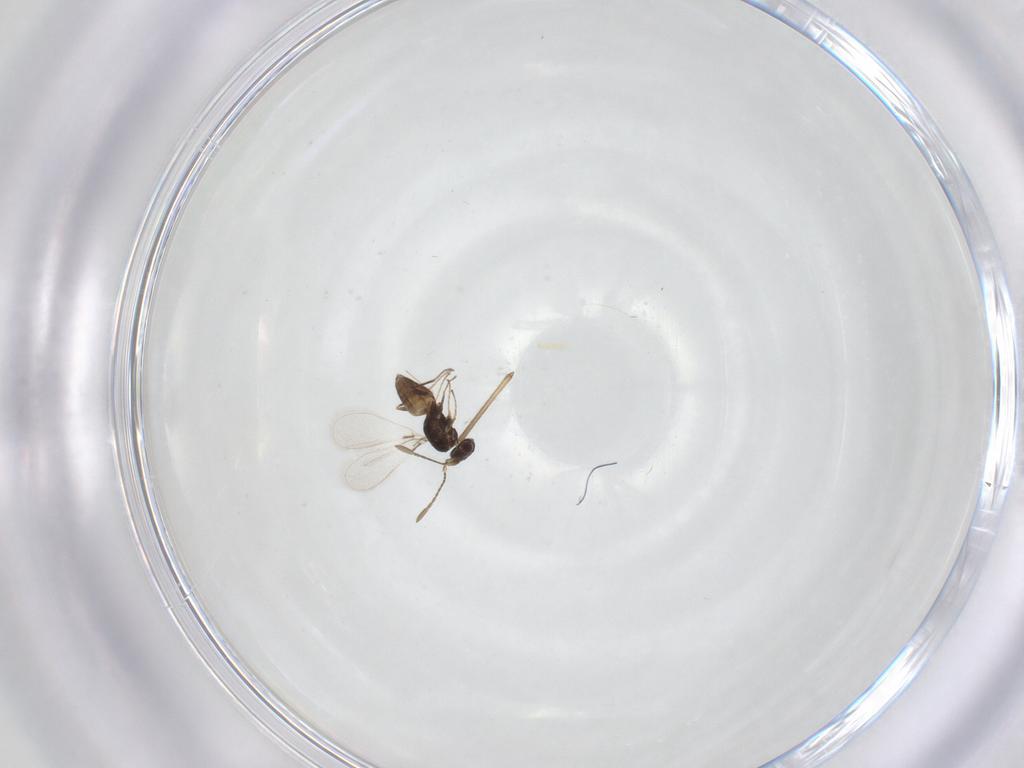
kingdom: Animalia
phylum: Arthropoda
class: Insecta
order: Hymenoptera
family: Mymaridae
